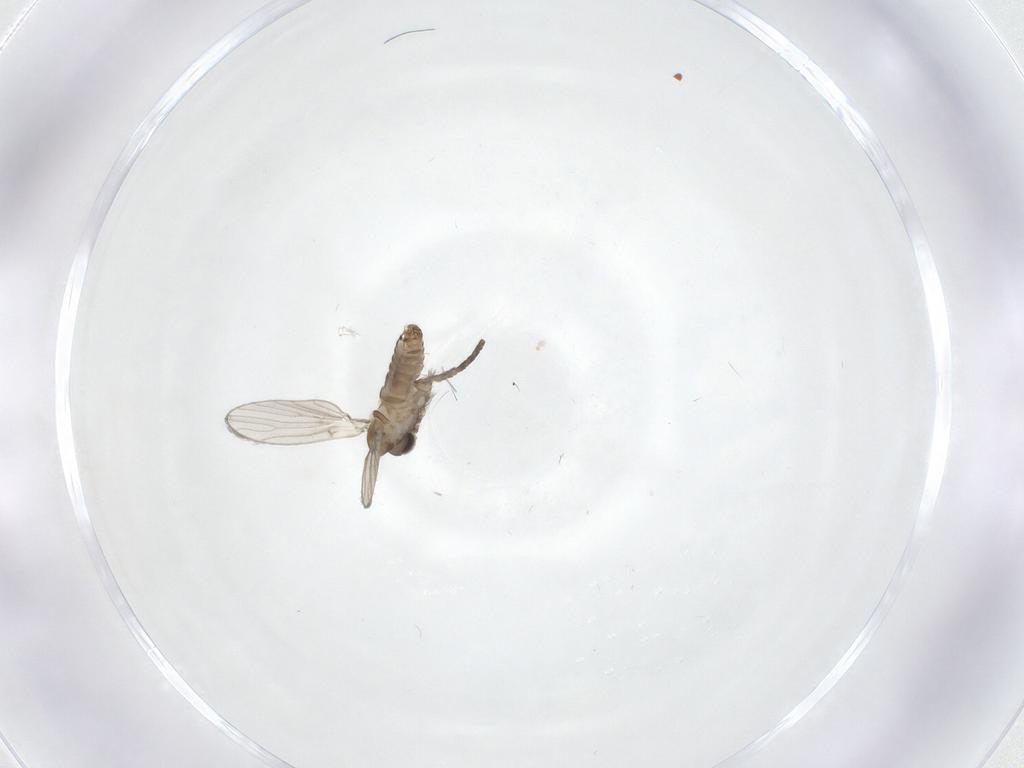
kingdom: Animalia
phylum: Arthropoda
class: Insecta
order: Diptera
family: Psychodidae
